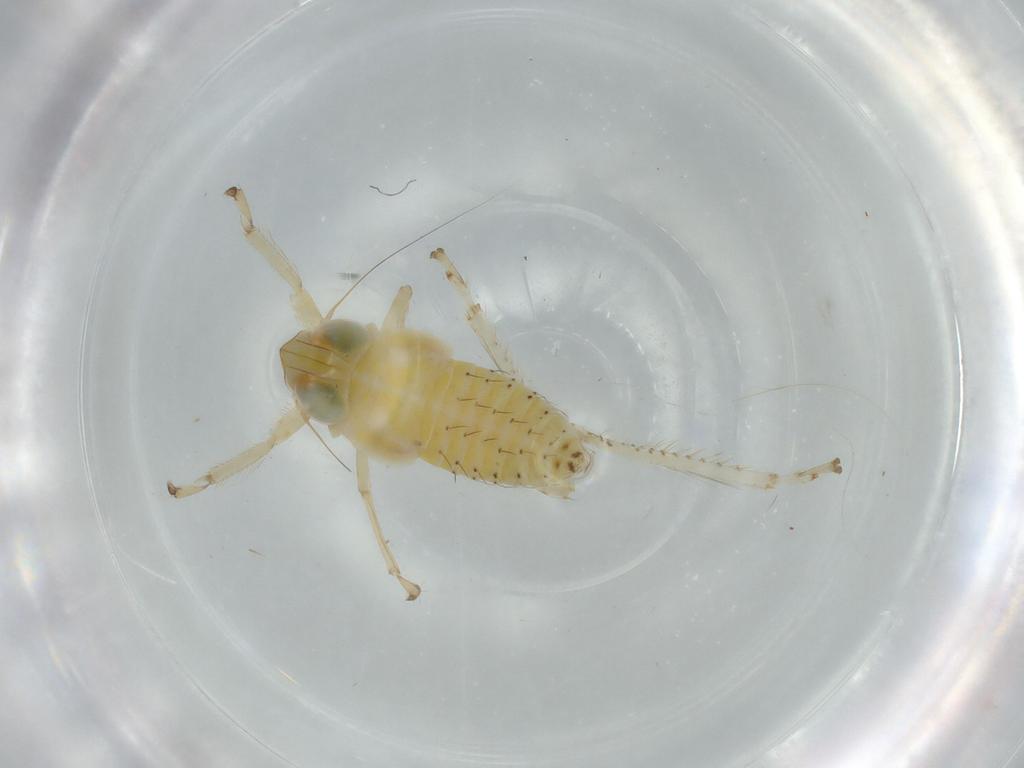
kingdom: Animalia
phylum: Arthropoda
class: Insecta
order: Hemiptera
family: Cicadellidae
